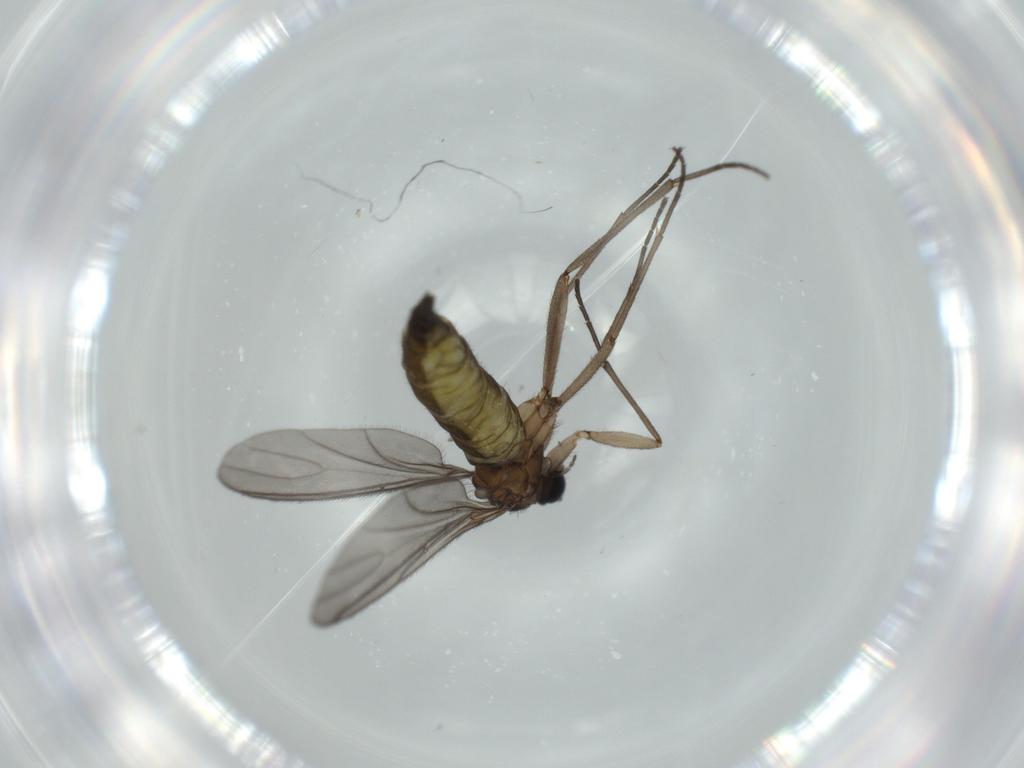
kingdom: Animalia
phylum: Arthropoda
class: Insecta
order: Diptera
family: Sciaridae
